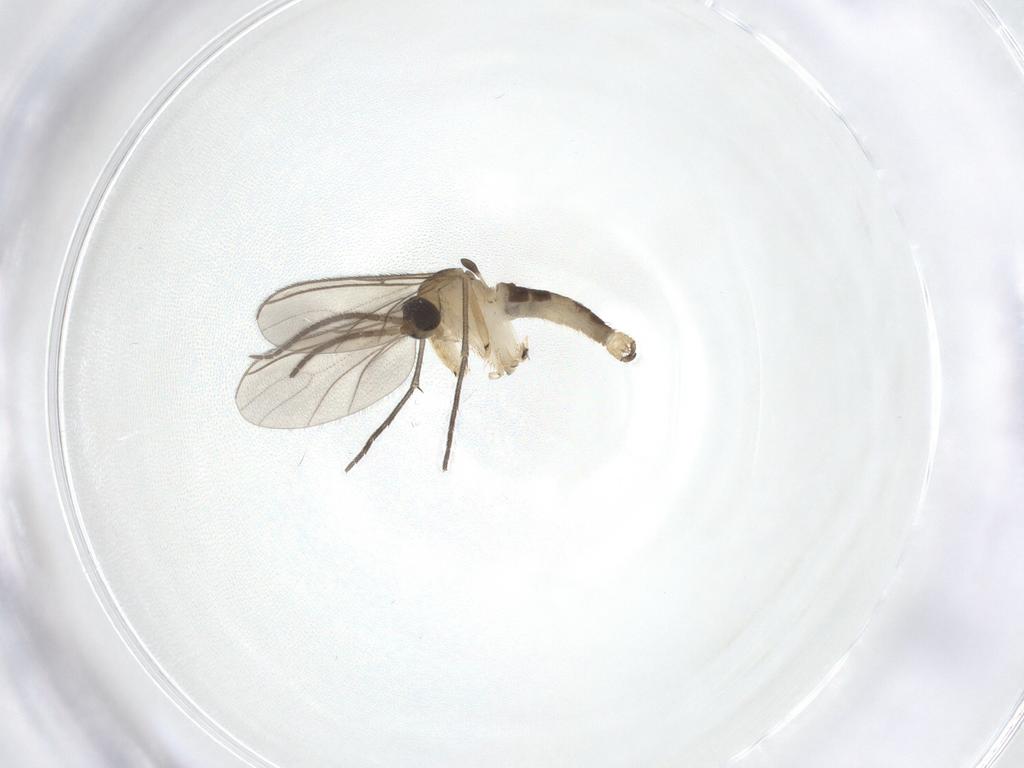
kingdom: Animalia
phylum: Arthropoda
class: Insecta
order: Diptera
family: Sciaridae
